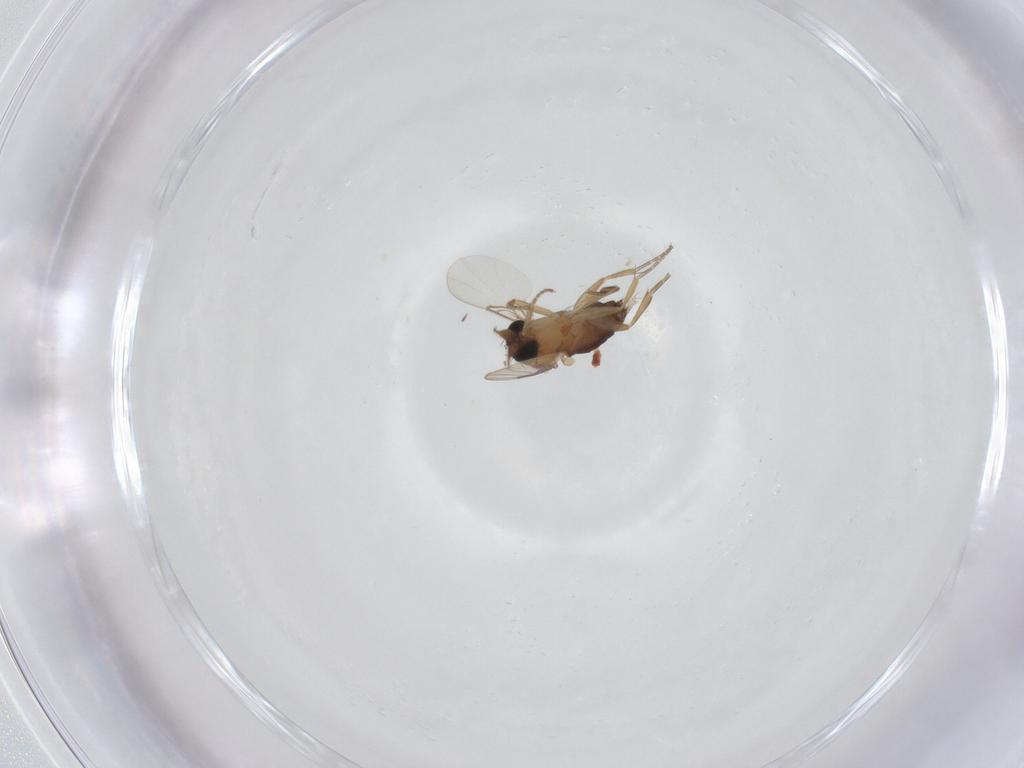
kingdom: Animalia
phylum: Arthropoda
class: Insecta
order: Diptera
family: Phoridae
